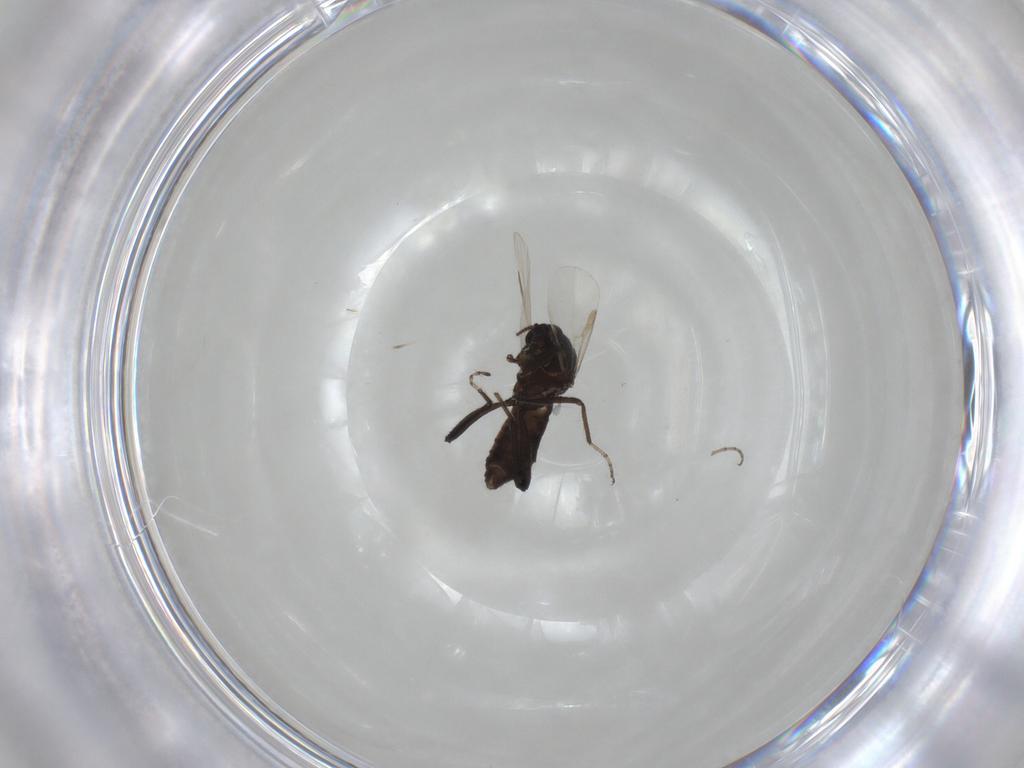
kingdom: Animalia
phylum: Arthropoda
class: Insecta
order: Diptera
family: Ceratopogonidae
